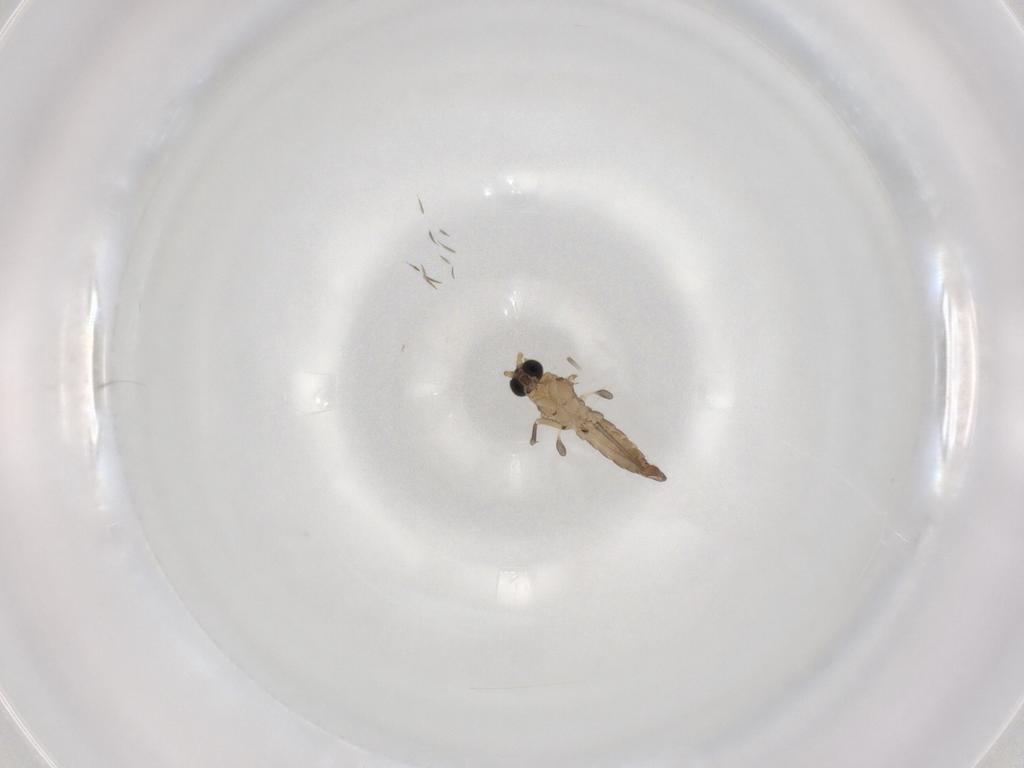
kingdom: Animalia
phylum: Arthropoda
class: Insecta
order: Diptera
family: Sciaridae
